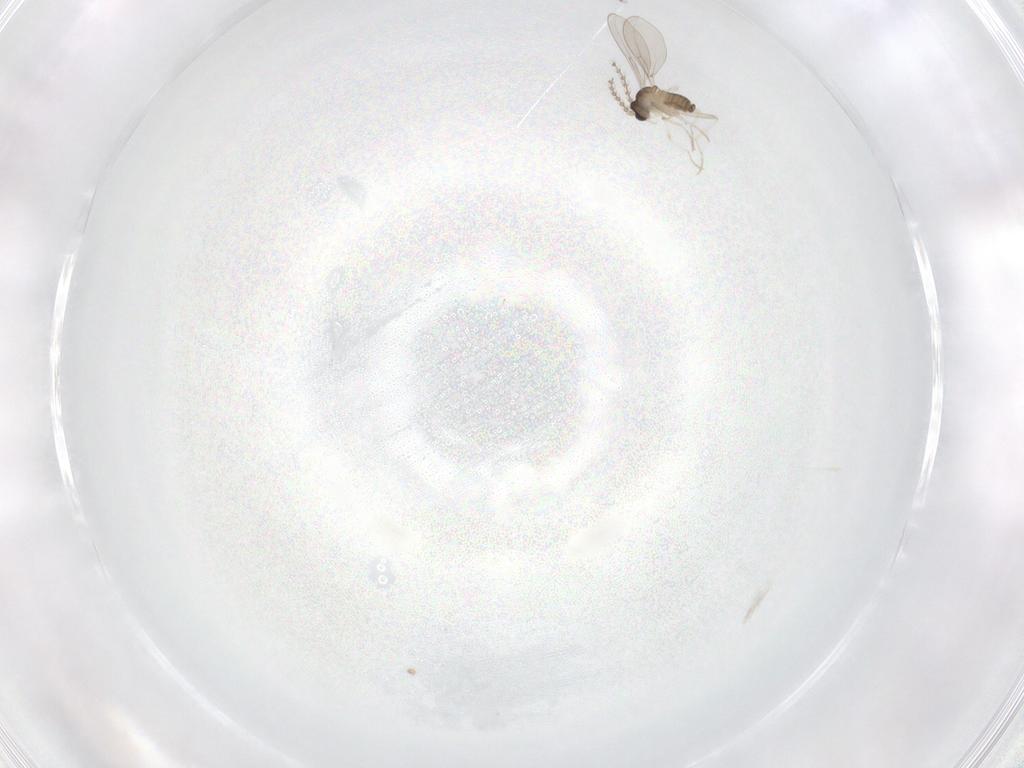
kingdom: Animalia
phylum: Arthropoda
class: Insecta
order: Diptera
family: Cecidomyiidae
